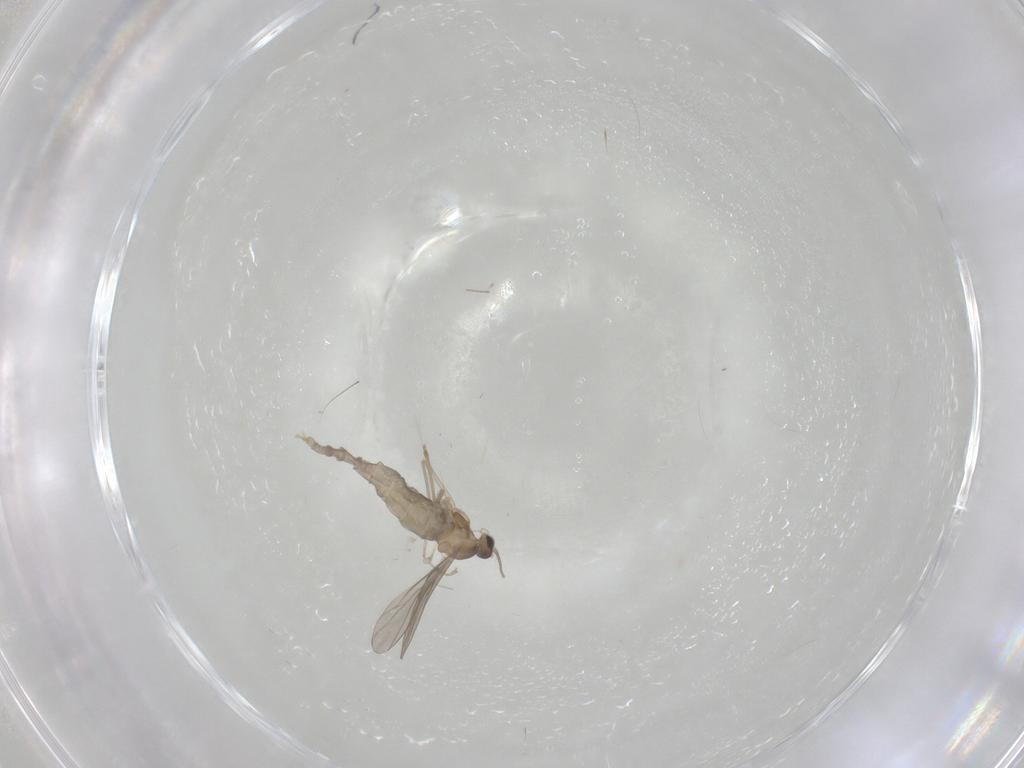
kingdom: Animalia
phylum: Arthropoda
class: Insecta
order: Diptera
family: Cecidomyiidae
